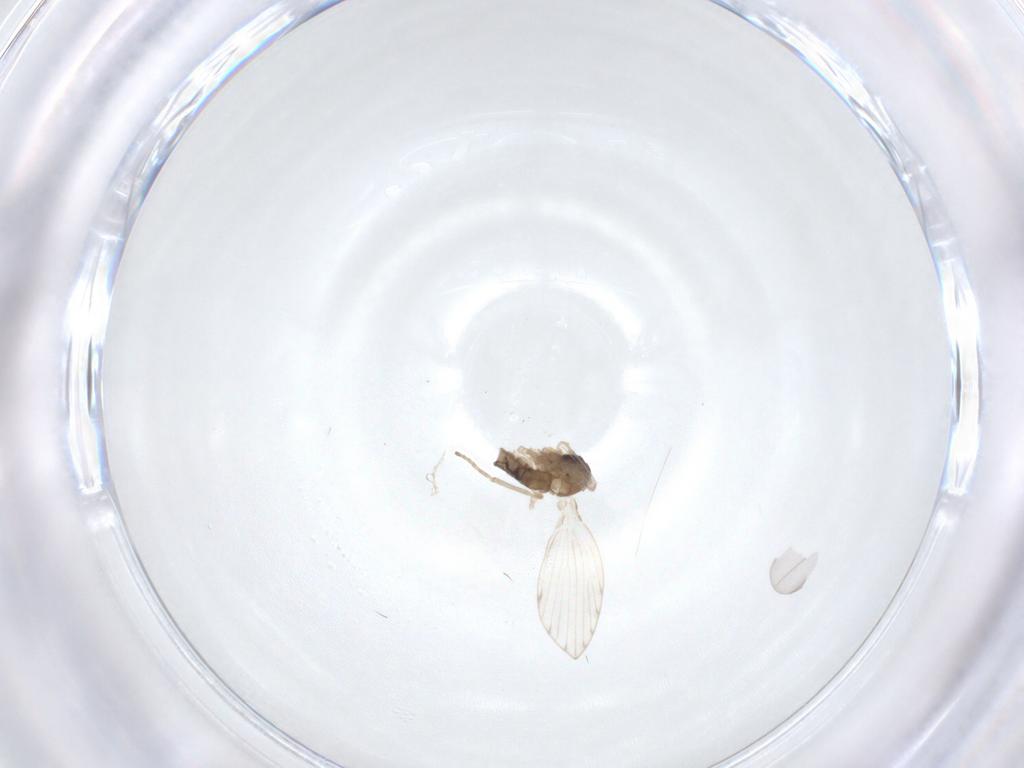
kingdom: Animalia
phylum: Arthropoda
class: Insecta
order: Diptera
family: Psychodidae
